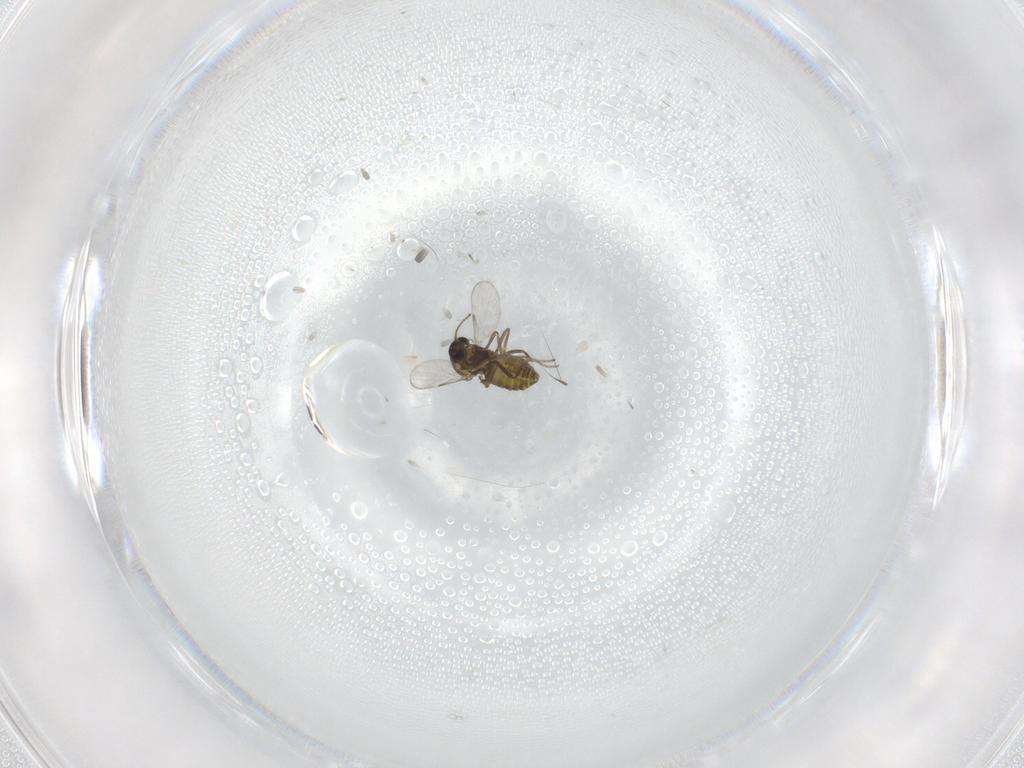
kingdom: Animalia
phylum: Arthropoda
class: Insecta
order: Diptera
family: Ceratopogonidae
